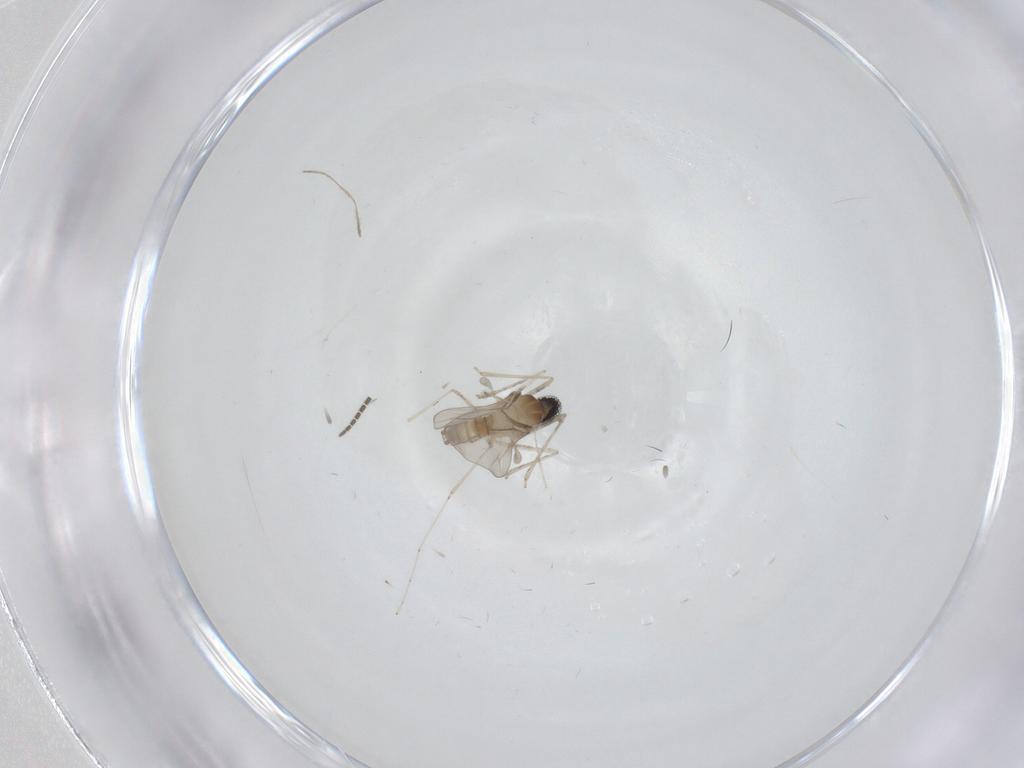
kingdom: Animalia
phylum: Arthropoda
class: Insecta
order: Diptera
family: Cecidomyiidae
